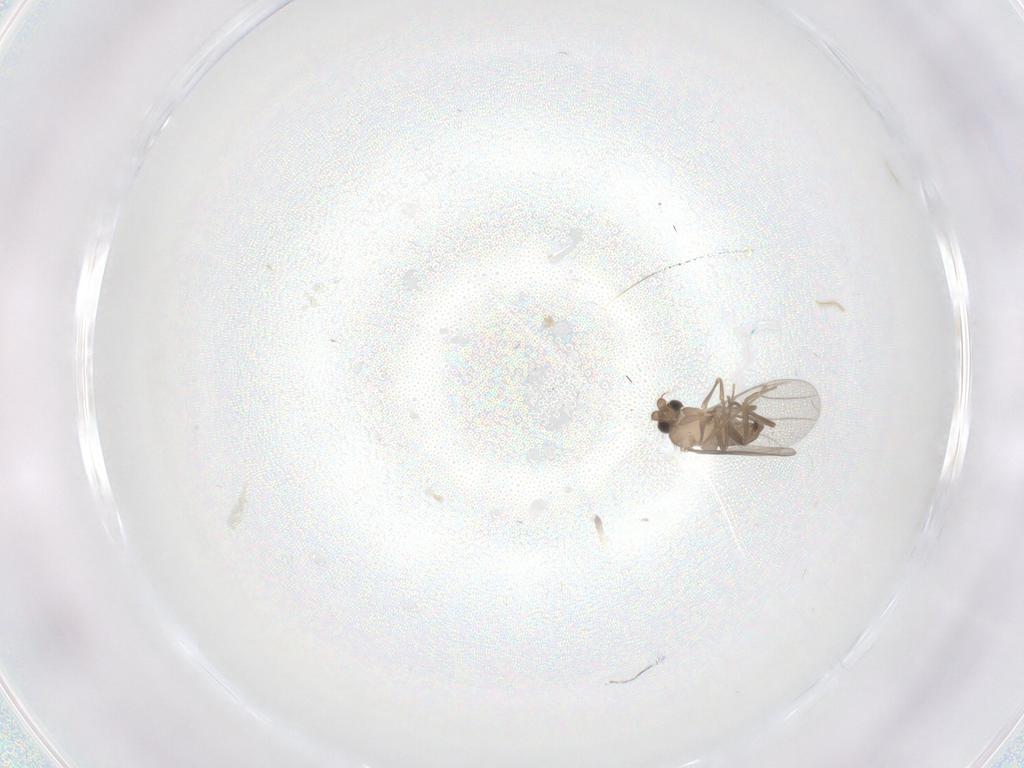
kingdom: Animalia
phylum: Arthropoda
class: Insecta
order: Diptera
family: Cecidomyiidae
